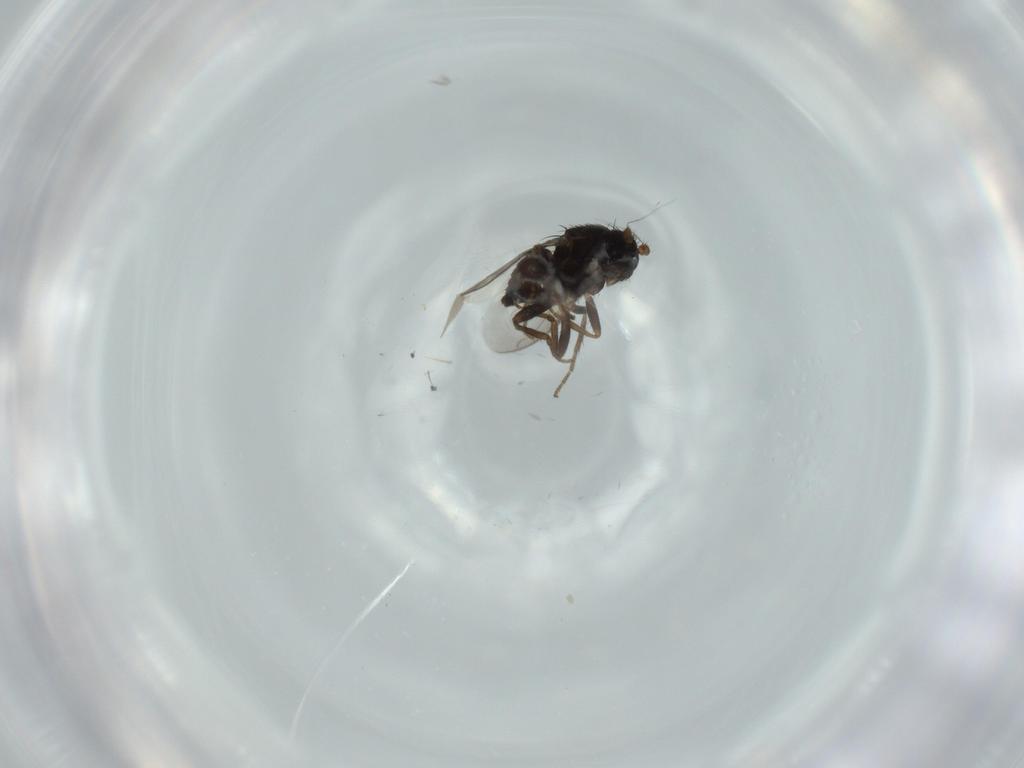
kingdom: Animalia
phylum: Arthropoda
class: Insecta
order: Diptera
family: Sphaeroceridae
